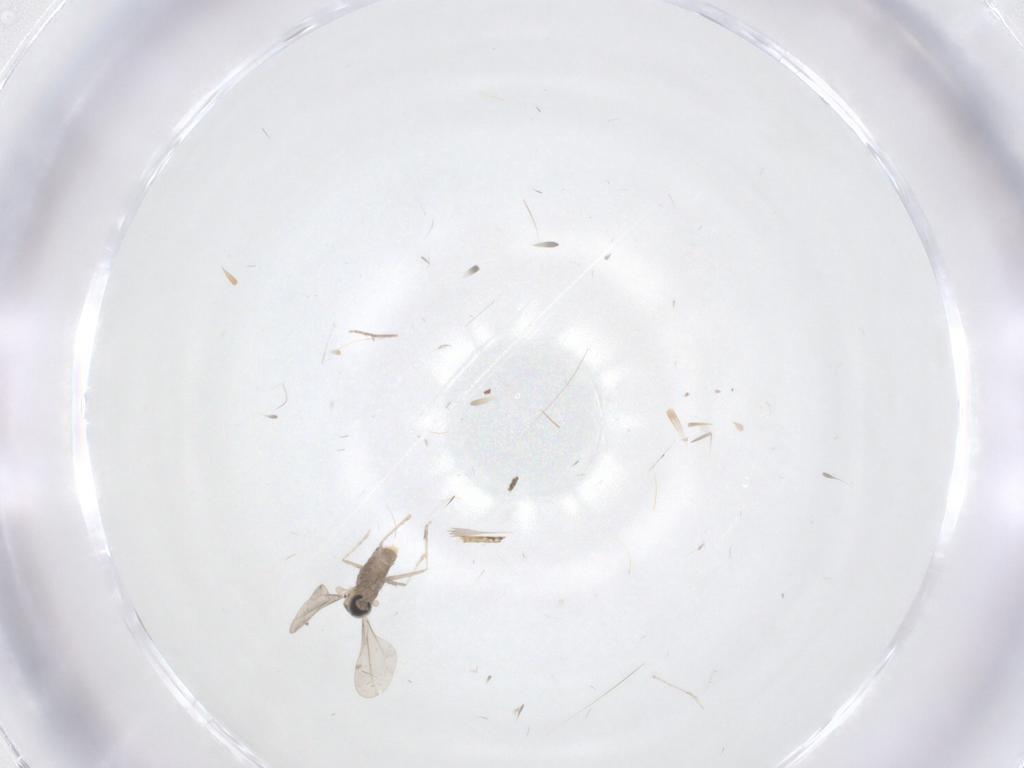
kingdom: Animalia
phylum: Arthropoda
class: Insecta
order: Diptera
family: Cecidomyiidae
